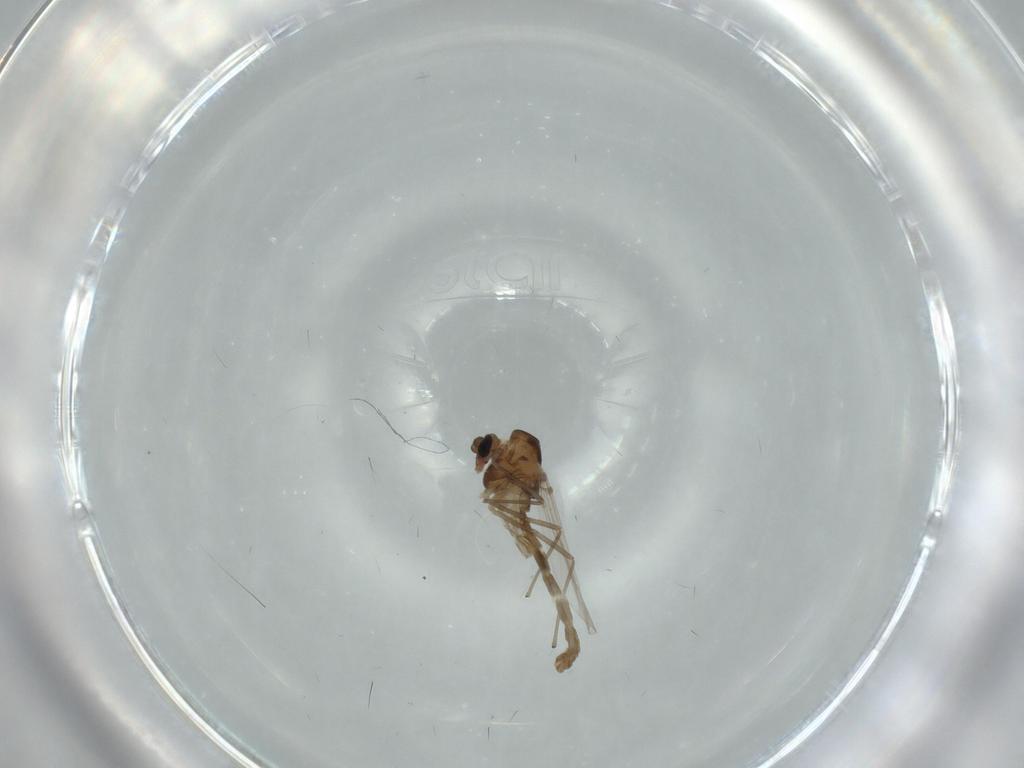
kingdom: Animalia
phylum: Arthropoda
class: Insecta
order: Diptera
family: Chironomidae
